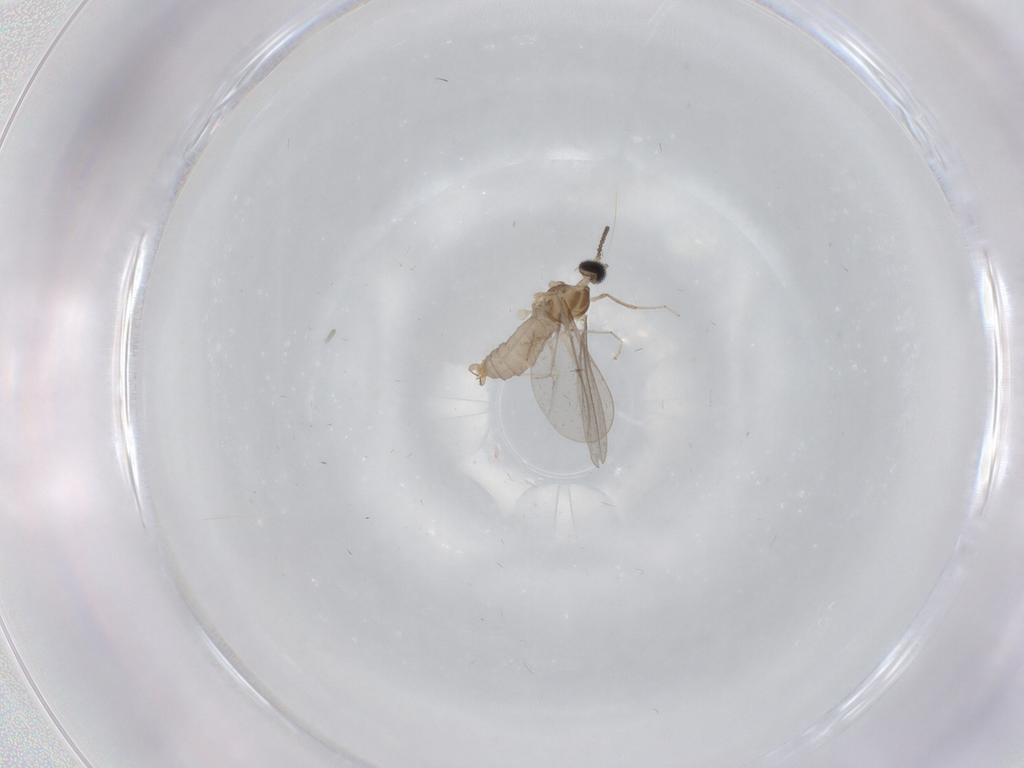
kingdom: Animalia
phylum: Arthropoda
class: Insecta
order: Diptera
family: Cecidomyiidae
